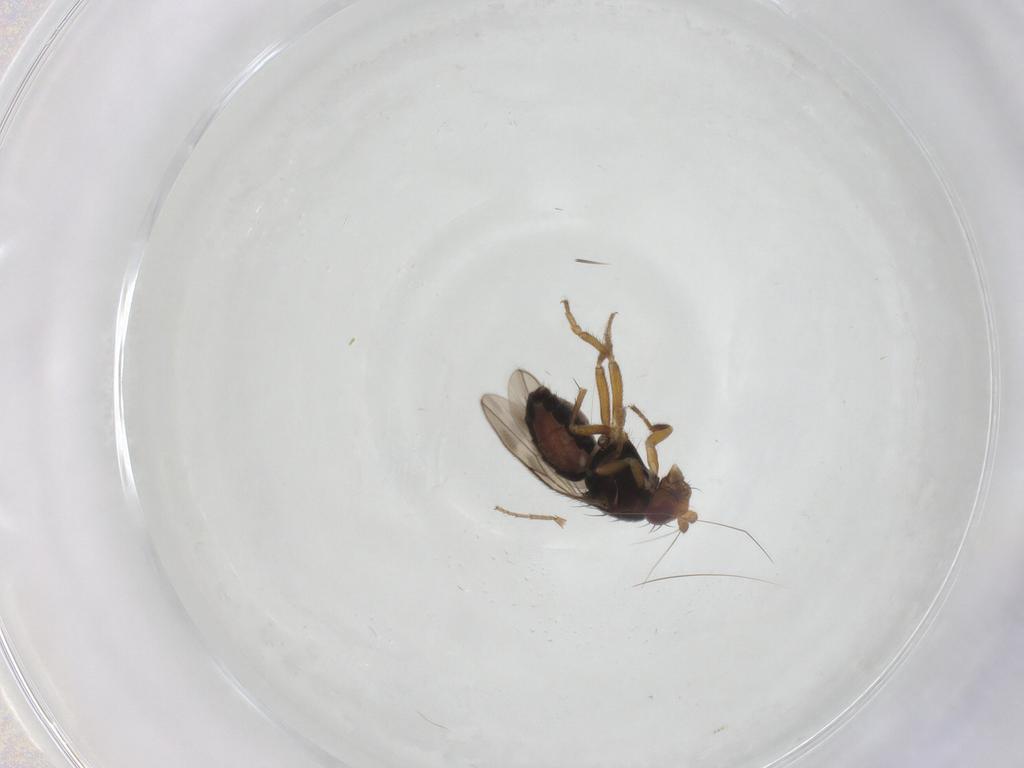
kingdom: Animalia
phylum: Arthropoda
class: Insecta
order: Diptera
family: Sphaeroceridae
